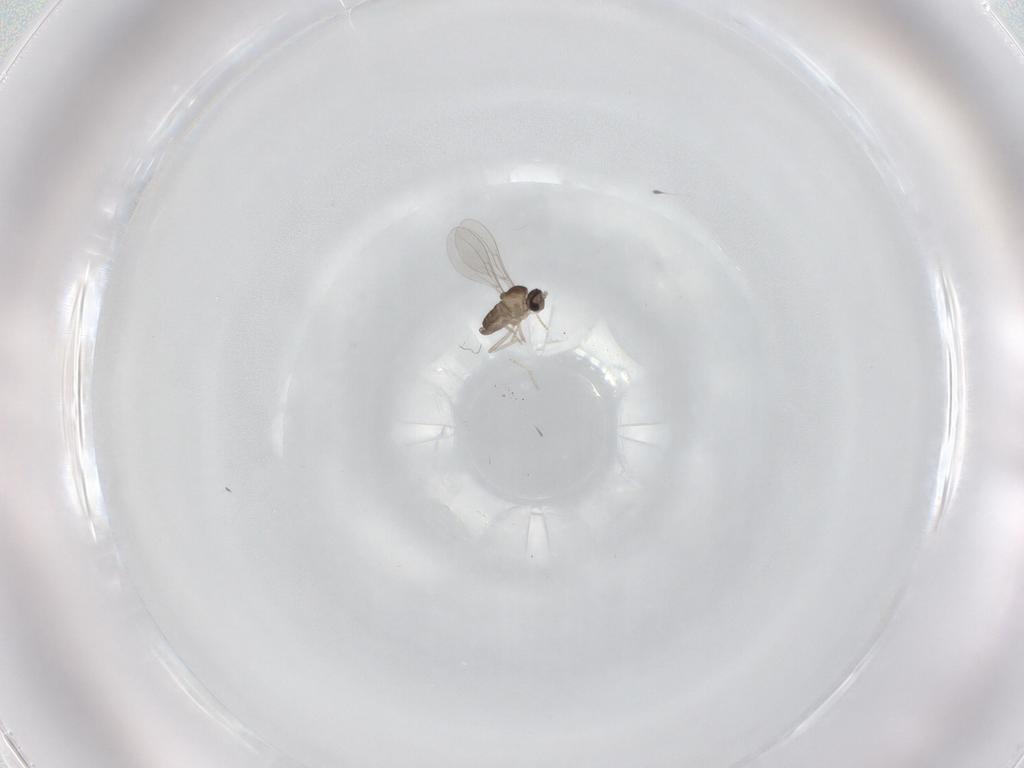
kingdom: Animalia
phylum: Arthropoda
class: Insecta
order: Diptera
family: Cecidomyiidae
